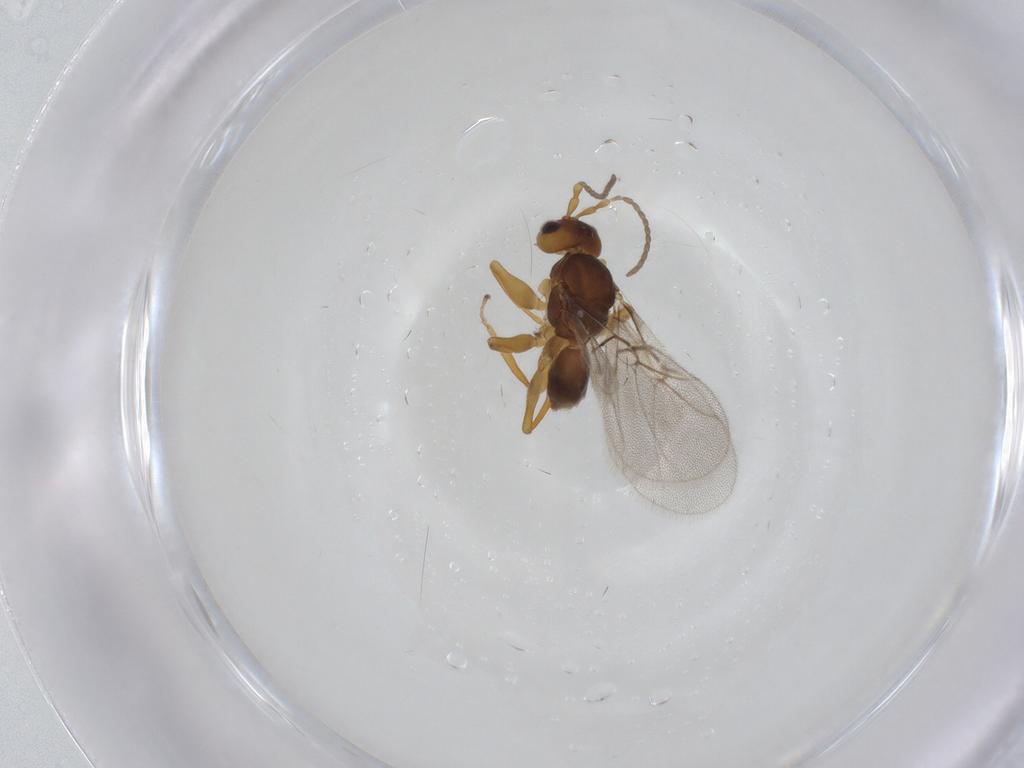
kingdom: Animalia
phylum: Arthropoda
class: Insecta
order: Hymenoptera
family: Cynipidae
